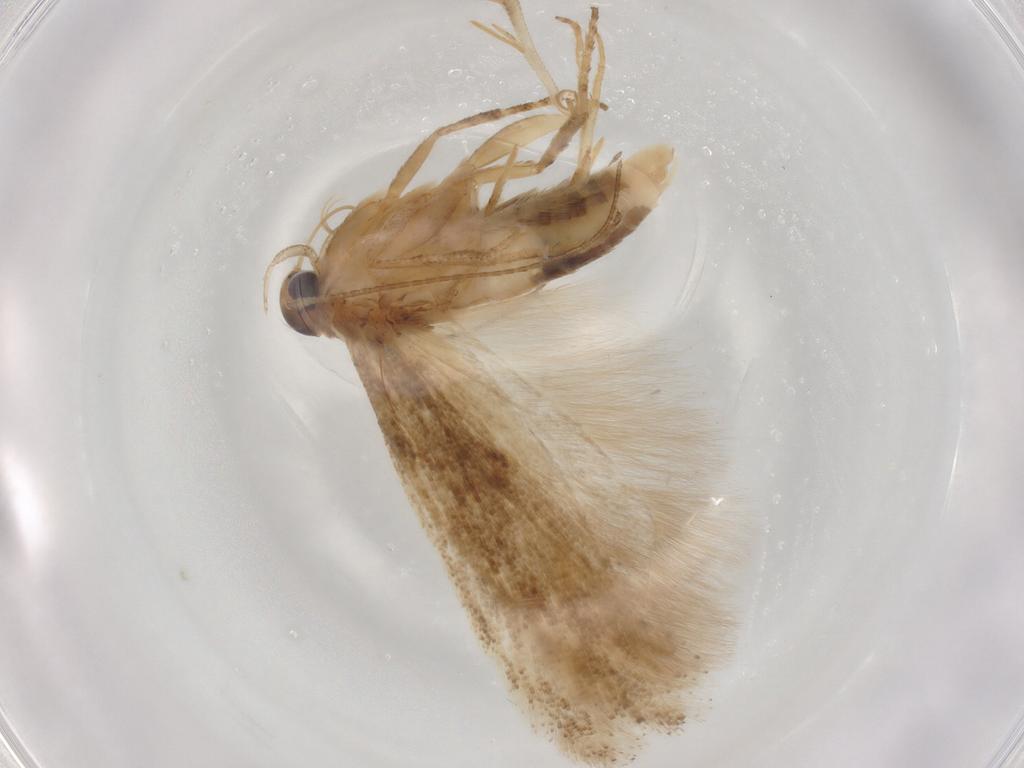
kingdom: Animalia
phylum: Arthropoda
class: Insecta
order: Lepidoptera
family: Gelechiidae
